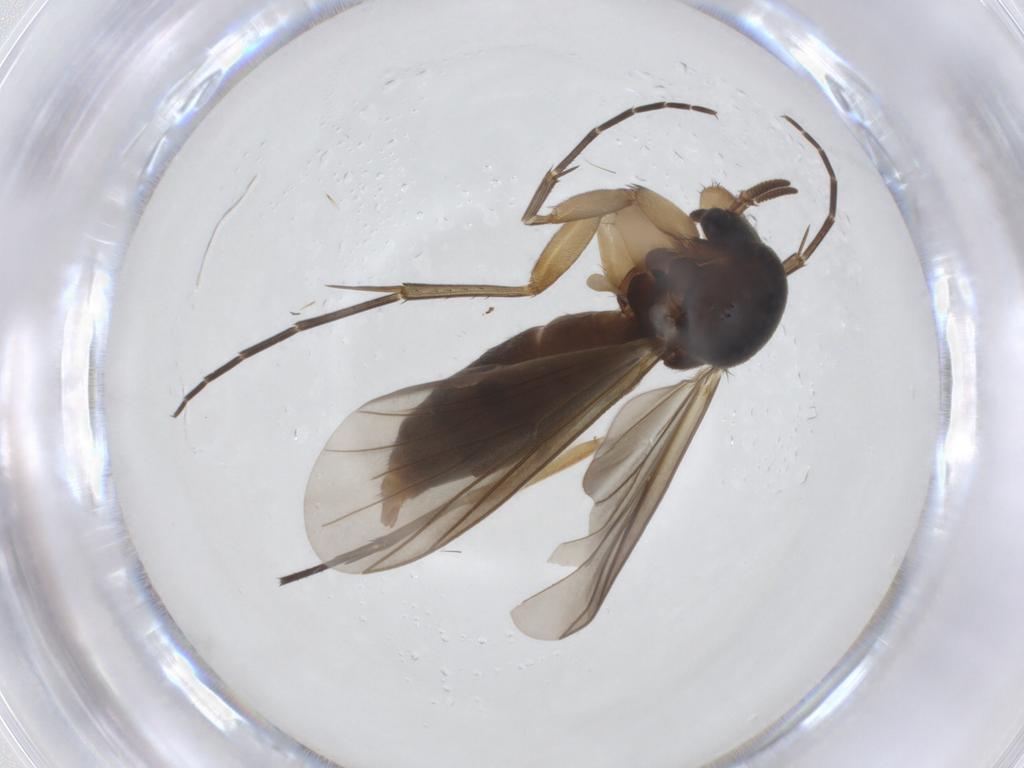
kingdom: Animalia
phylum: Arthropoda
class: Insecta
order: Diptera
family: Mycetophilidae
